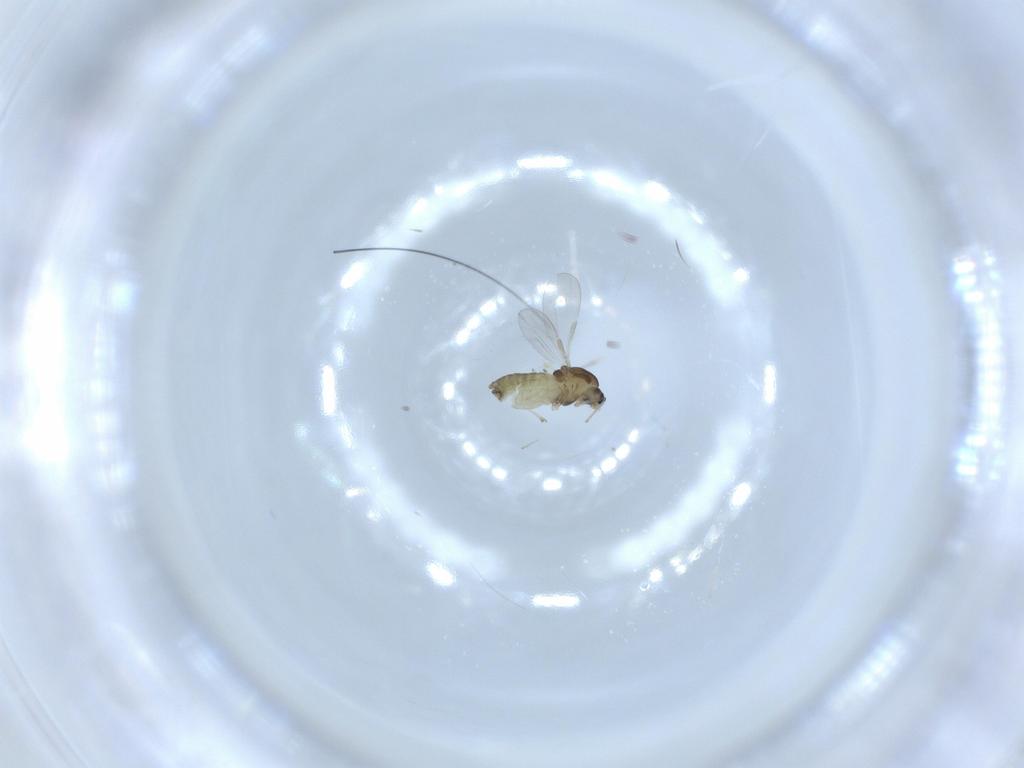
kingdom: Animalia
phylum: Arthropoda
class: Insecta
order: Diptera
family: Chironomidae
